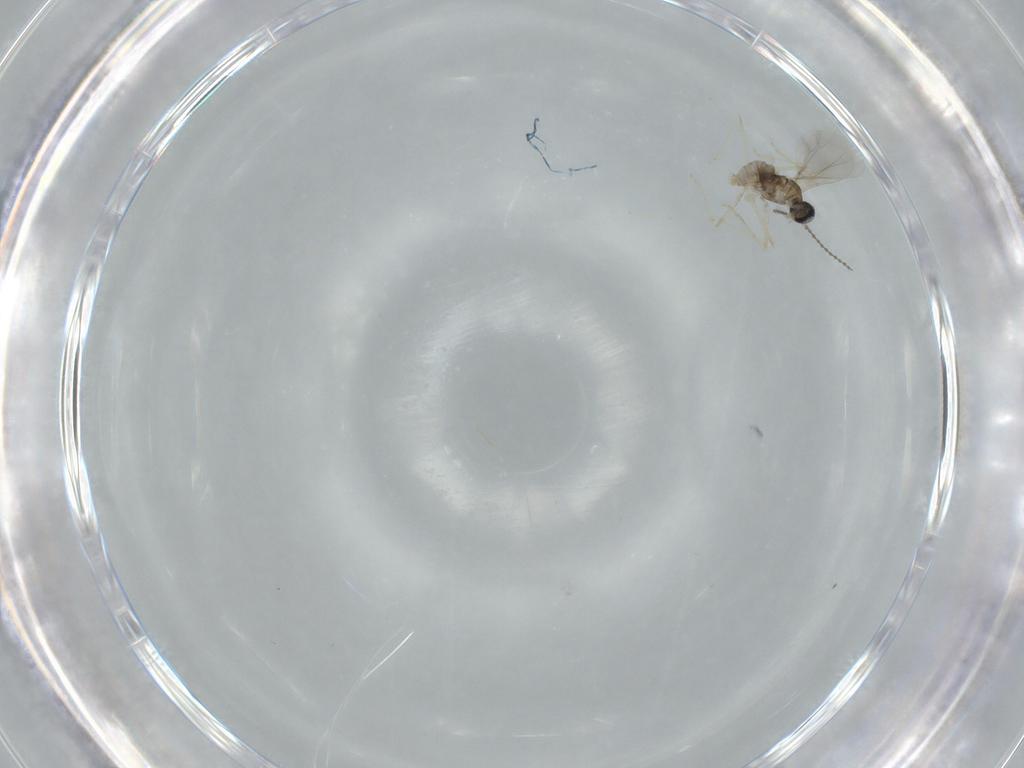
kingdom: Animalia
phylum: Arthropoda
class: Insecta
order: Diptera
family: Cecidomyiidae
